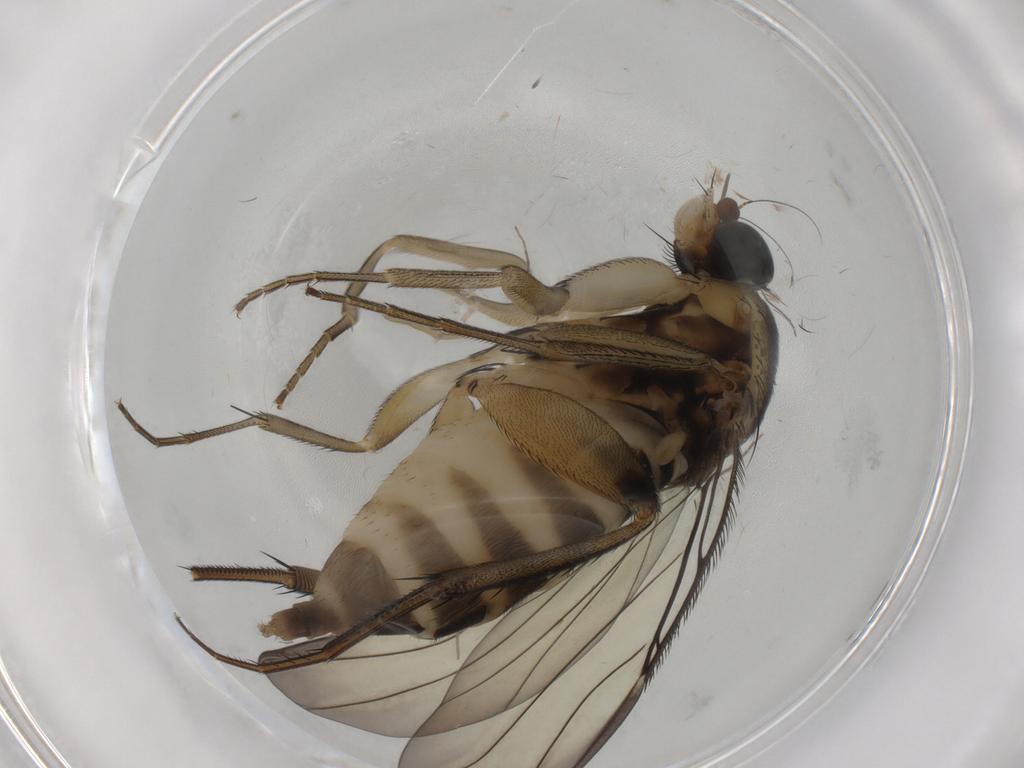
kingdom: Animalia
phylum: Arthropoda
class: Insecta
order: Diptera
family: Phoridae
